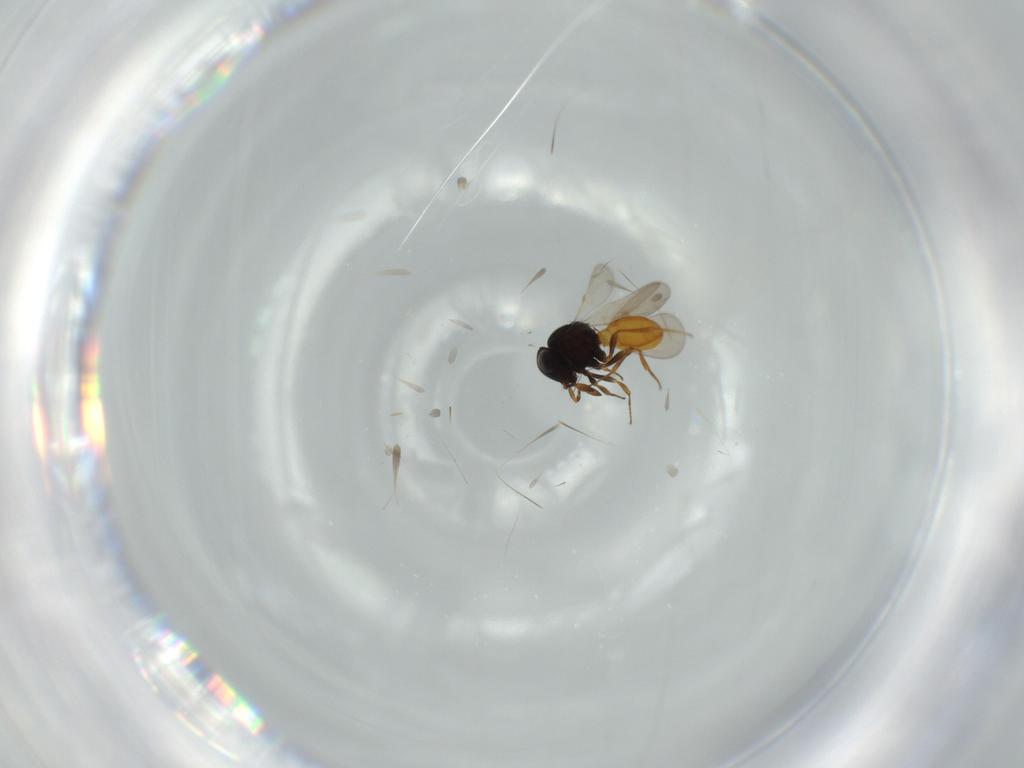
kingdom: Animalia
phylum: Arthropoda
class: Insecta
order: Hymenoptera
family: Scelionidae
